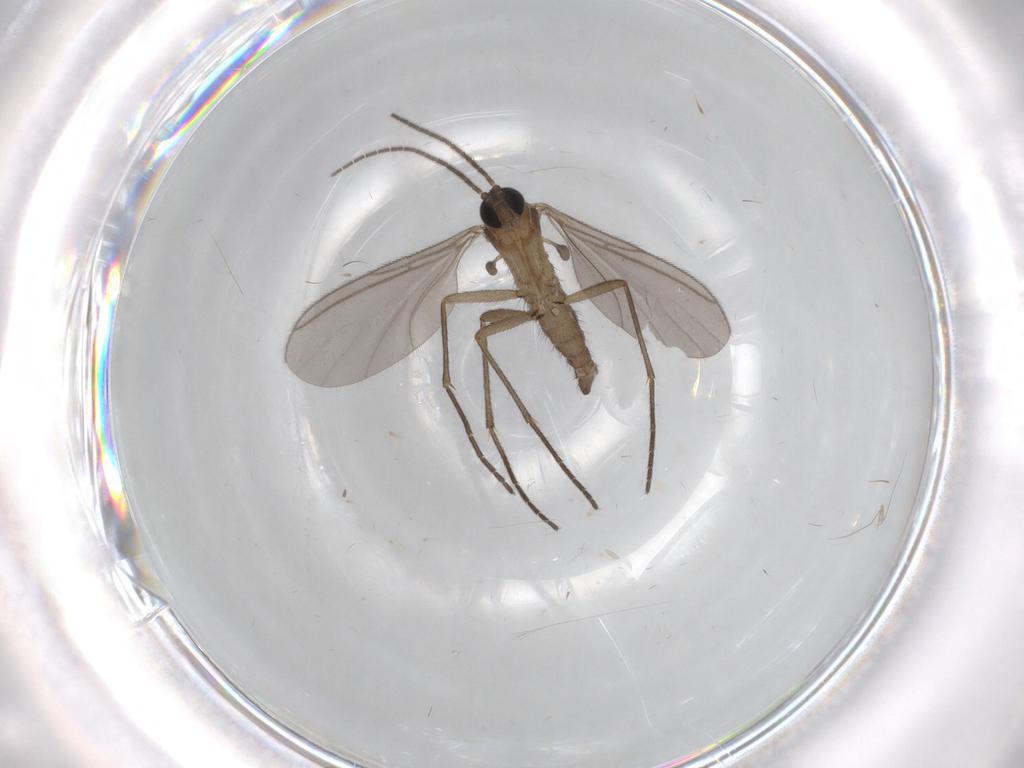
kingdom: Animalia
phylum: Arthropoda
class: Insecta
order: Diptera
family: Sciaridae
